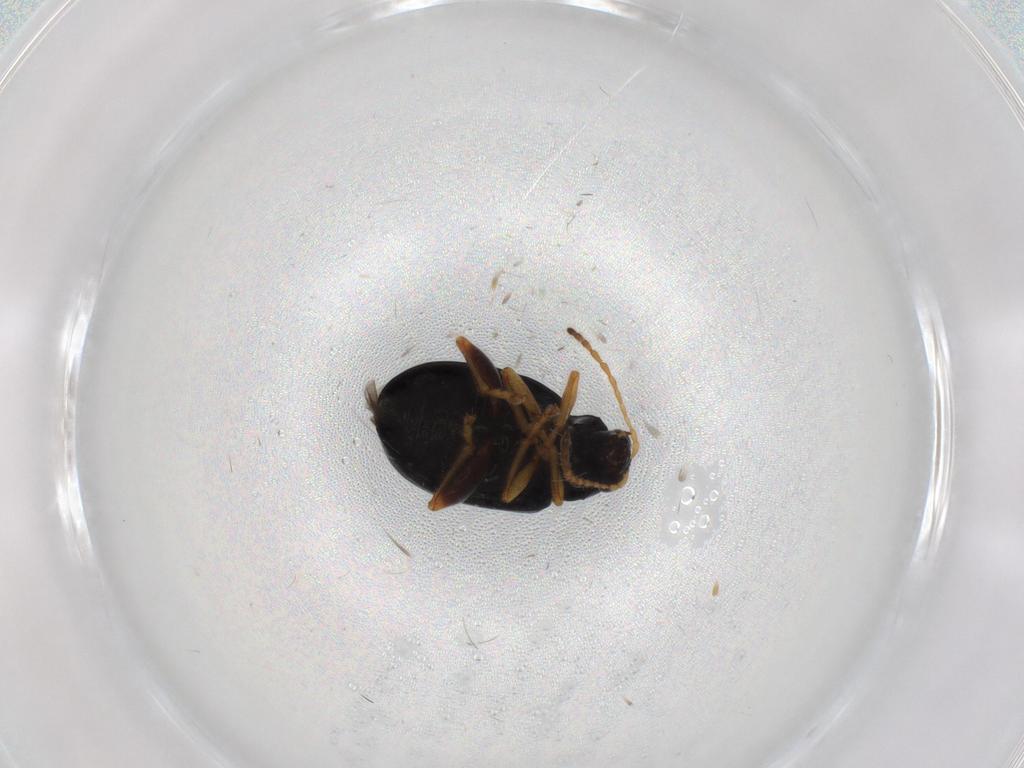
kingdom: Animalia
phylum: Arthropoda
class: Insecta
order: Coleoptera
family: Chrysomelidae
